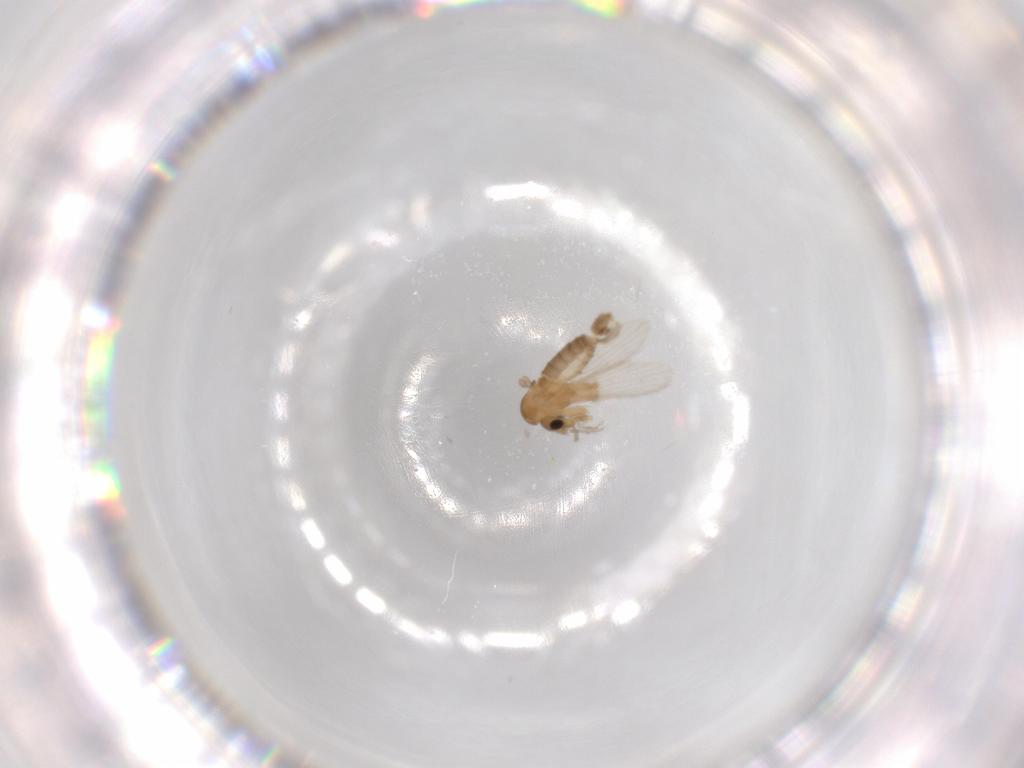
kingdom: Animalia
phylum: Arthropoda
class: Insecta
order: Diptera
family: Psychodidae
